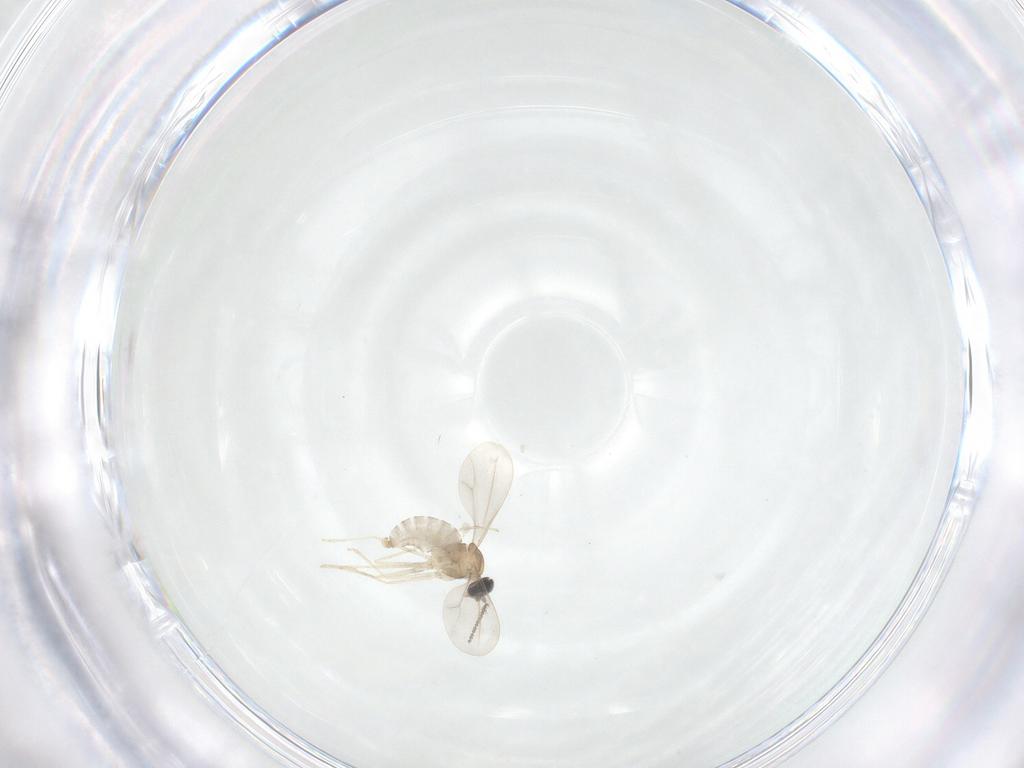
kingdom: Animalia
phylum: Arthropoda
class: Insecta
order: Diptera
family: Cecidomyiidae
